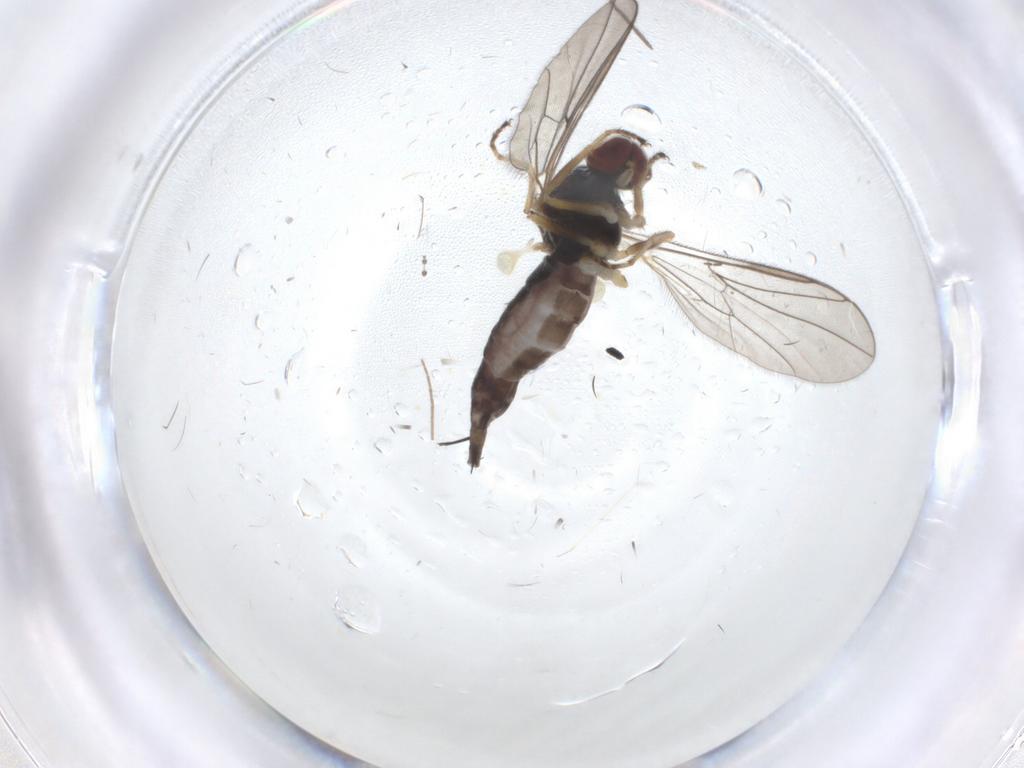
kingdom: Animalia
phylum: Arthropoda
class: Insecta
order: Diptera
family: Hybotidae
